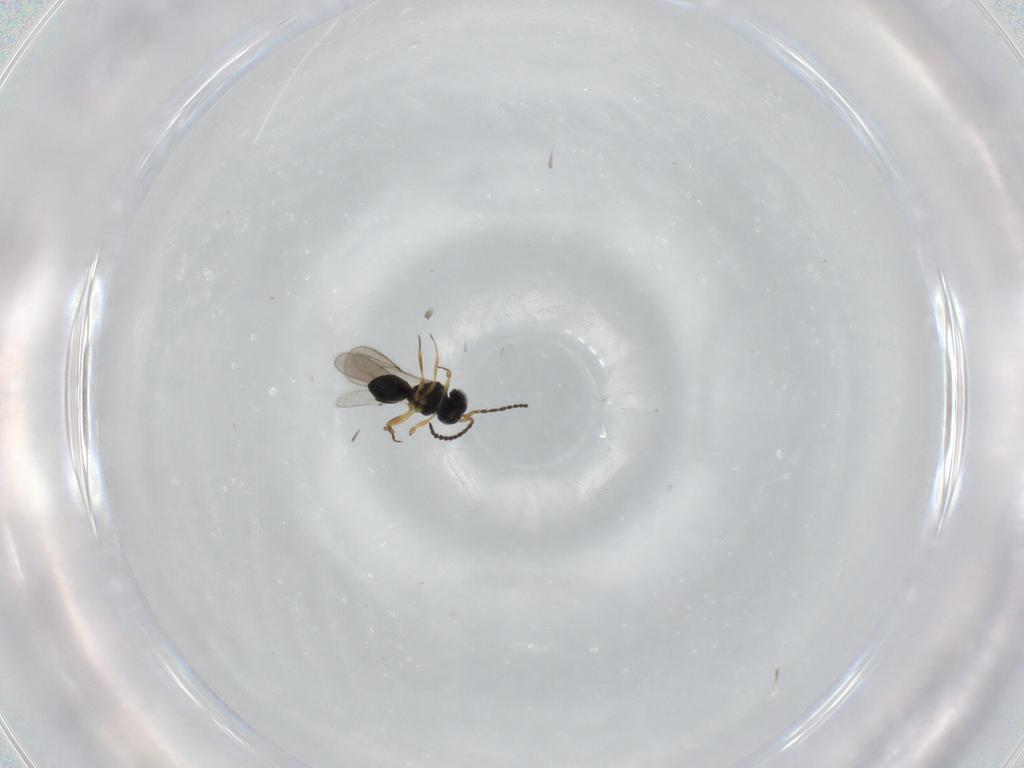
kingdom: Animalia
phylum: Arthropoda
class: Insecta
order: Hymenoptera
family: Scelionidae
